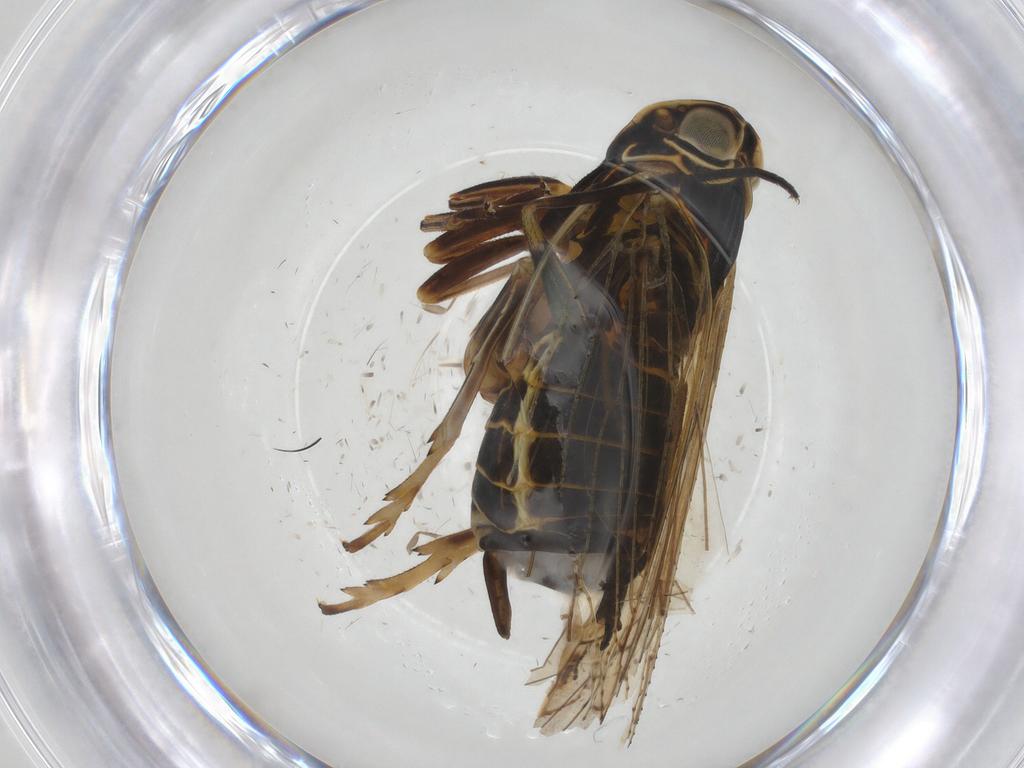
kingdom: Animalia
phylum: Arthropoda
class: Insecta
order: Hemiptera
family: Cixiidae
